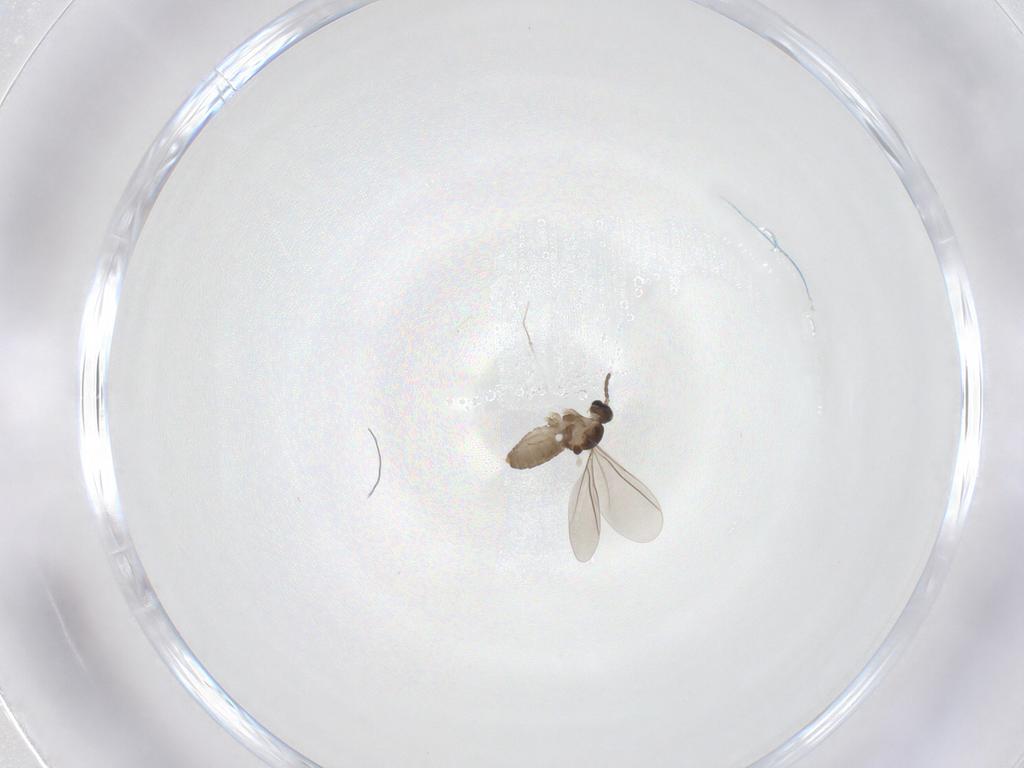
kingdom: Animalia
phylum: Arthropoda
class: Insecta
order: Diptera
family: Cecidomyiidae
